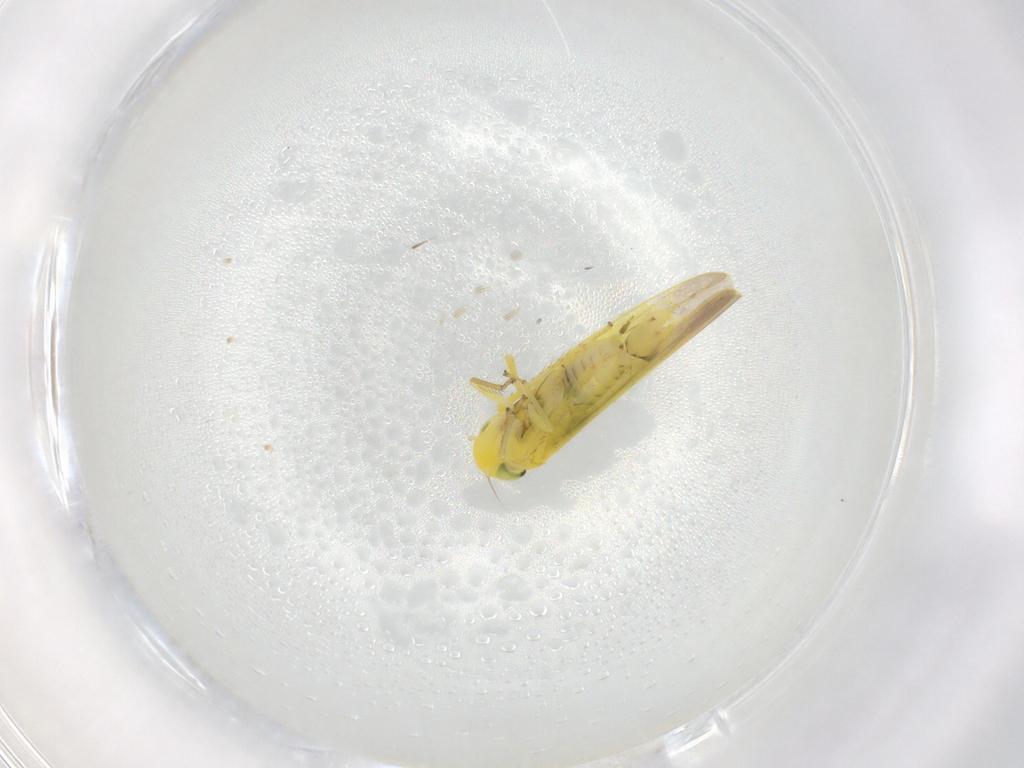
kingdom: Animalia
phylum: Arthropoda
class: Insecta
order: Hemiptera
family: Cicadellidae
